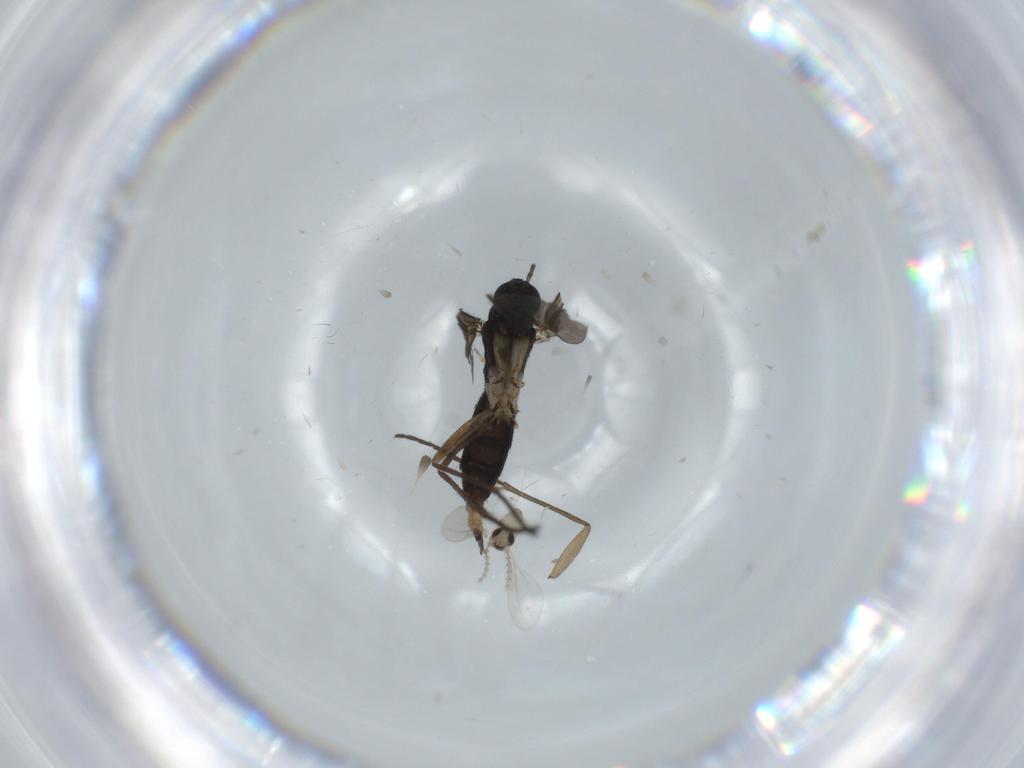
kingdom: Animalia
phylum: Arthropoda
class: Insecta
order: Diptera
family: Sciaridae
